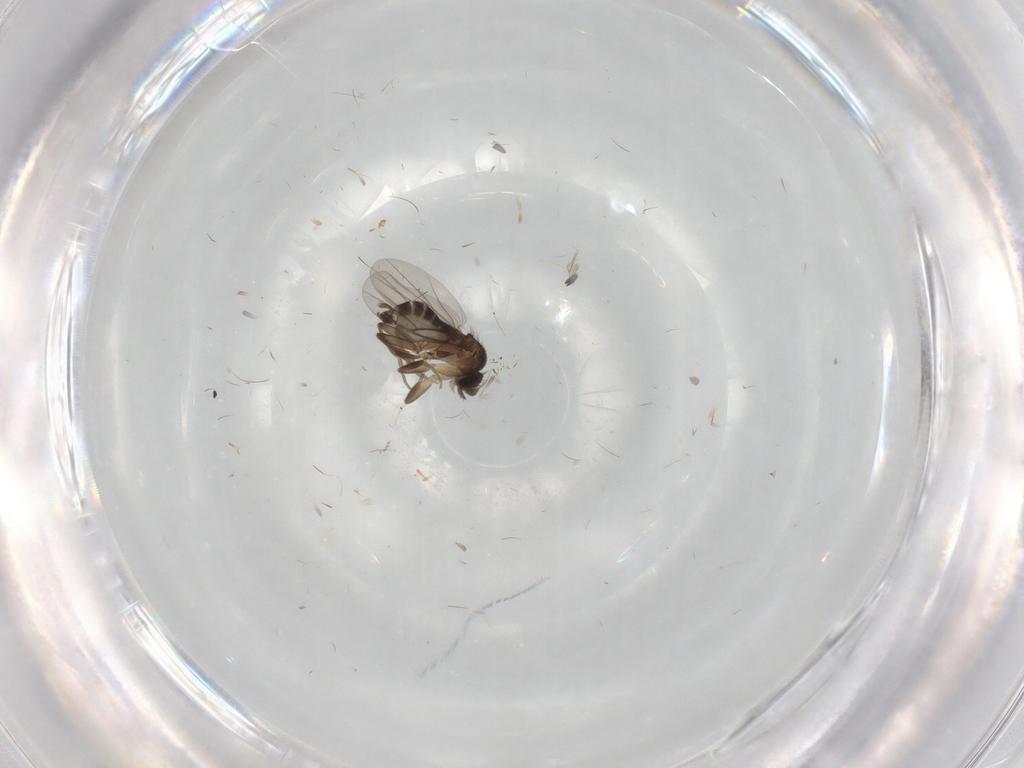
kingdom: Animalia
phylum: Arthropoda
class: Insecta
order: Diptera
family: Phoridae
